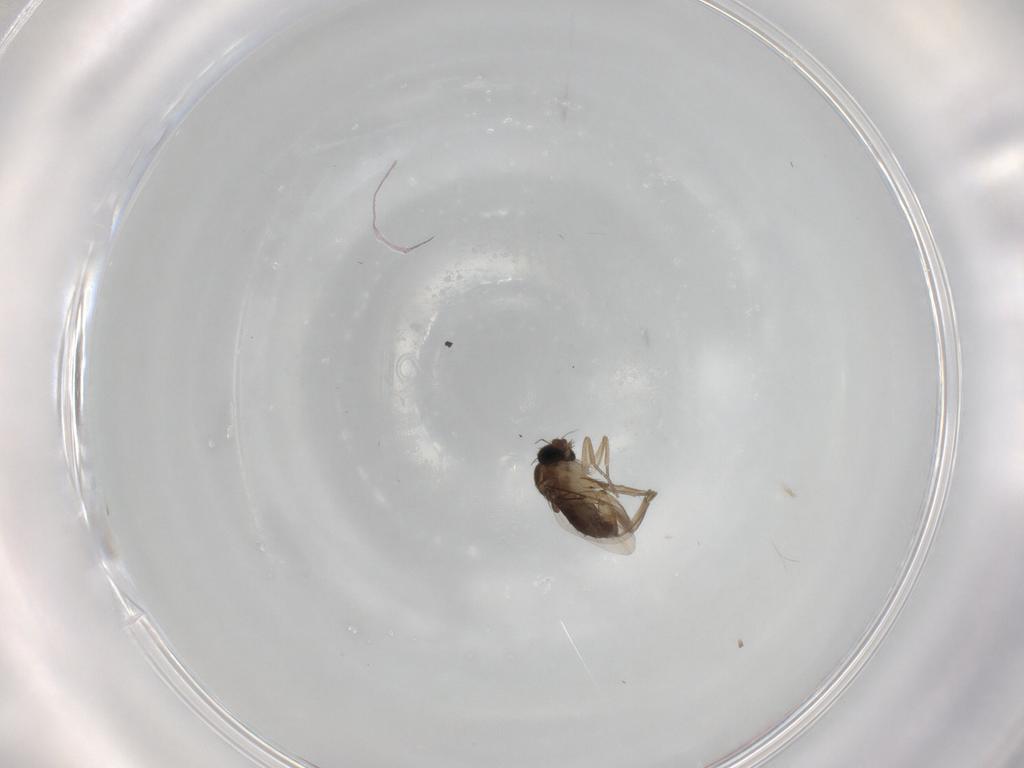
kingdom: Animalia
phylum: Arthropoda
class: Insecta
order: Diptera
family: Phoridae
